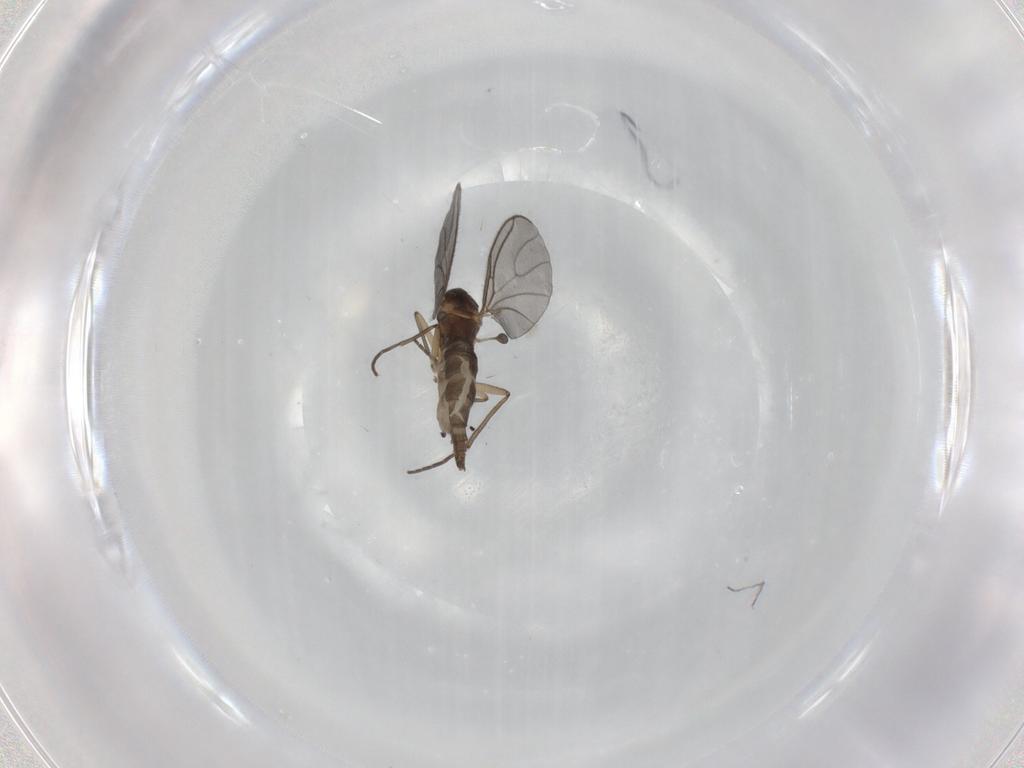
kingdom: Animalia
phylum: Arthropoda
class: Insecta
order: Diptera
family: Sciaridae
